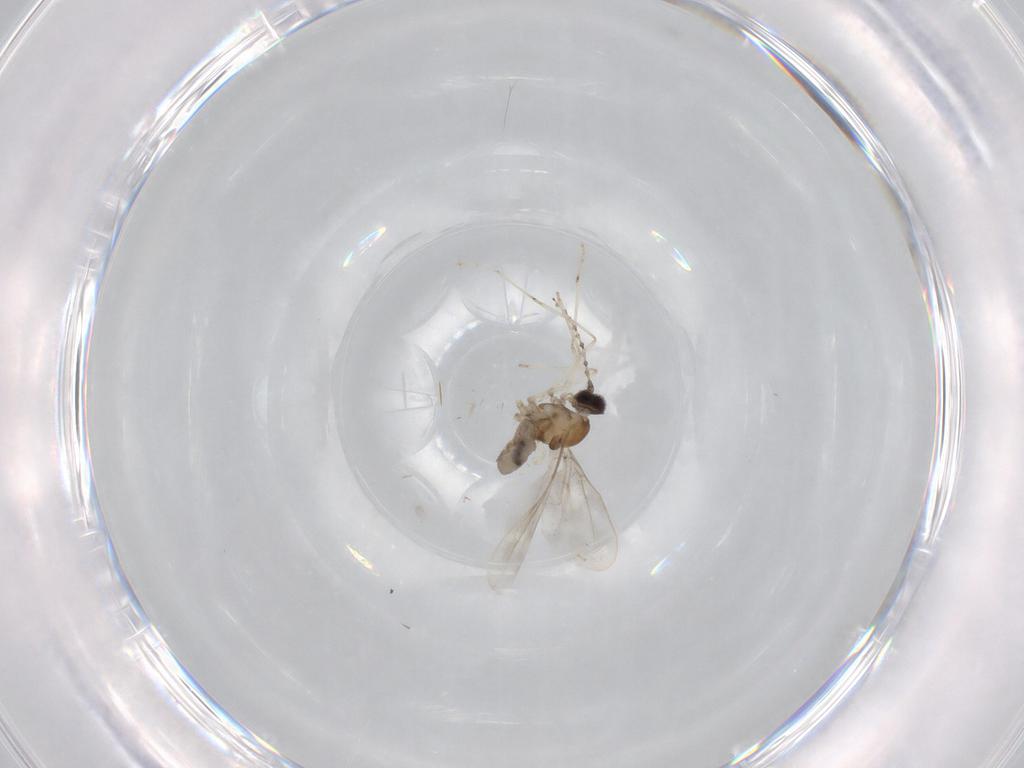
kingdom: Animalia
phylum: Arthropoda
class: Insecta
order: Diptera
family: Cecidomyiidae
